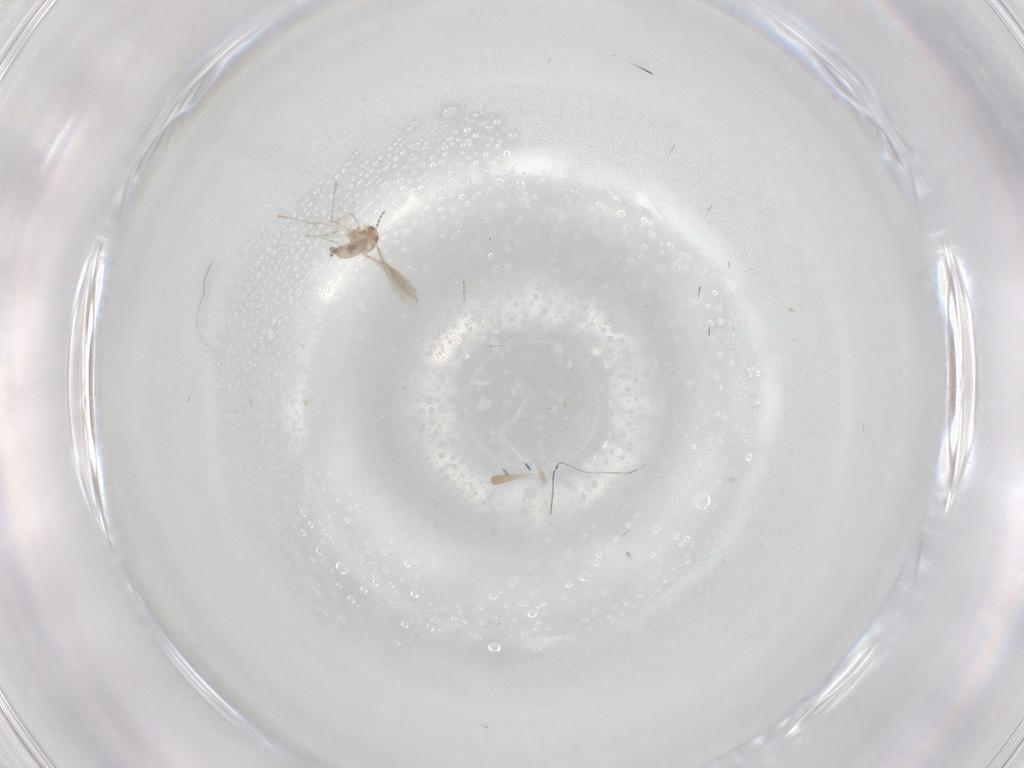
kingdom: Animalia
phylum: Arthropoda
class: Insecta
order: Diptera
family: Cecidomyiidae
